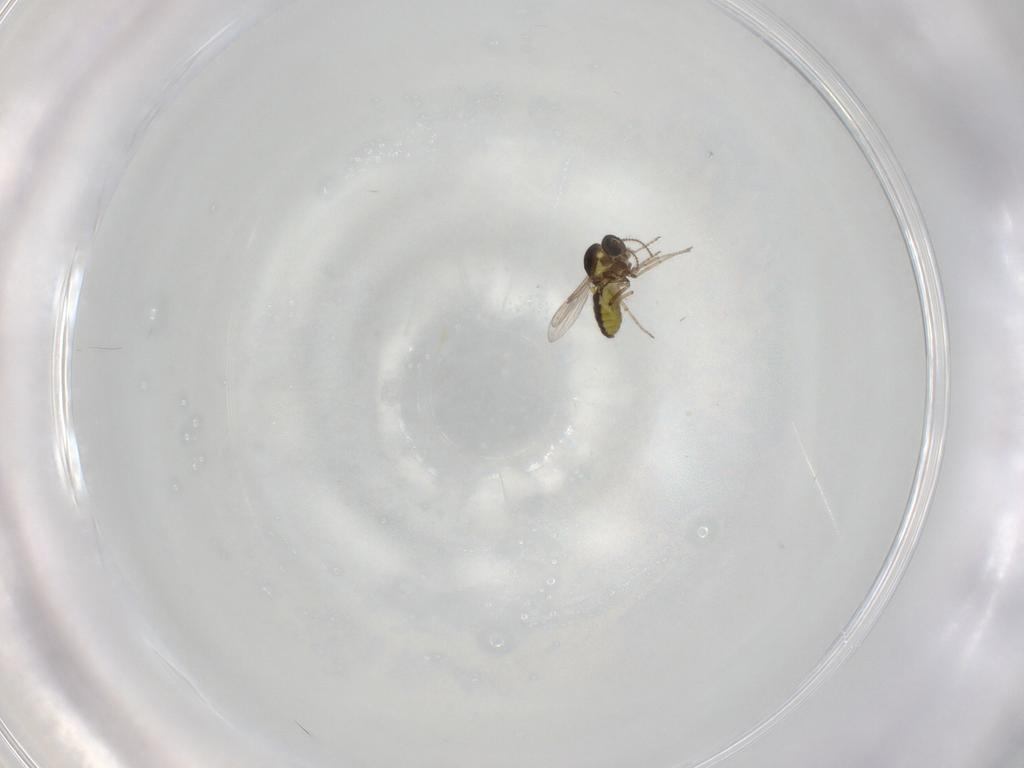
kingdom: Animalia
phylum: Arthropoda
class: Insecta
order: Diptera
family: Ceratopogonidae
